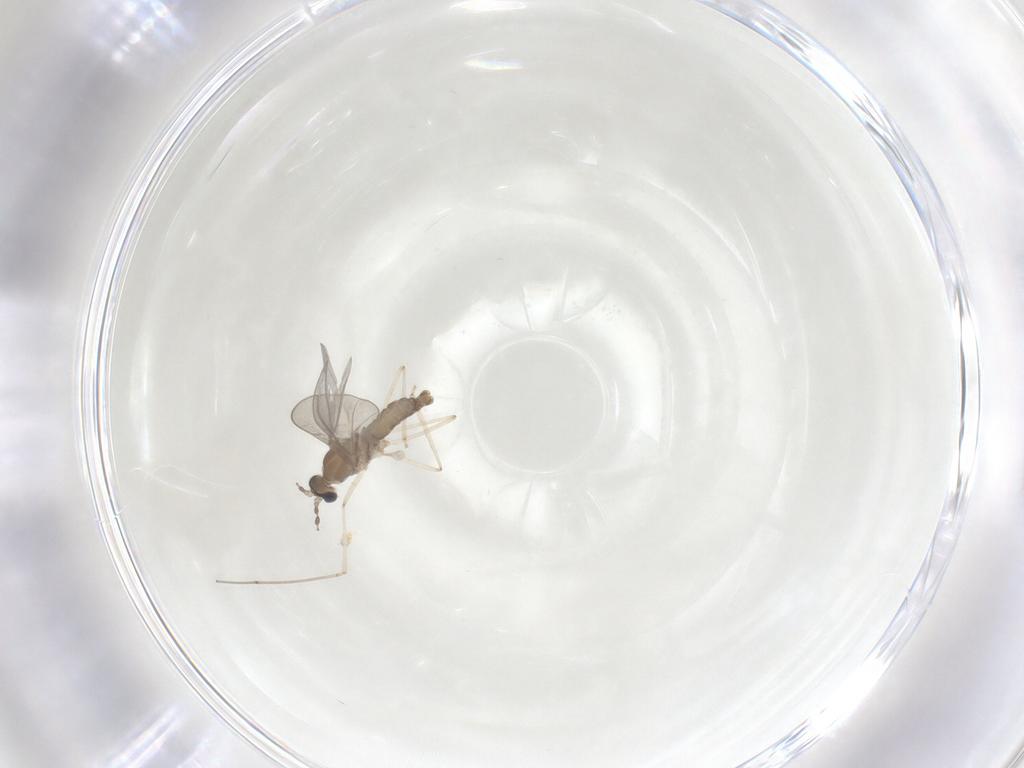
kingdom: Animalia
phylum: Arthropoda
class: Insecta
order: Diptera
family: Cecidomyiidae
